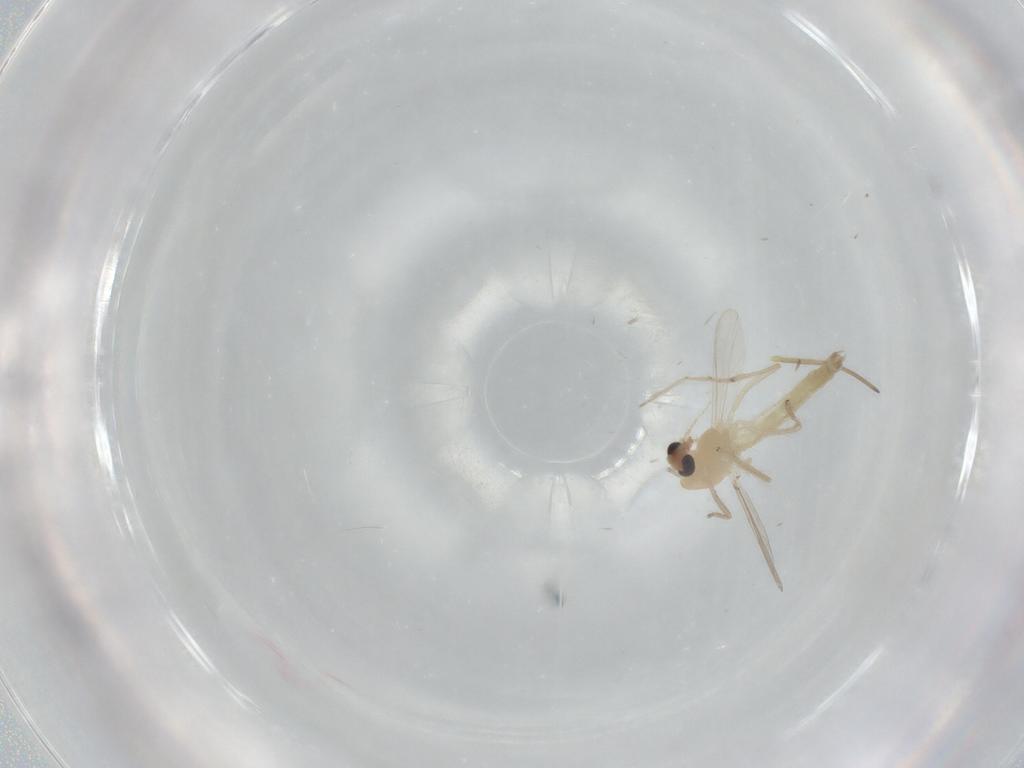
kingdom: Animalia
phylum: Arthropoda
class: Insecta
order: Diptera
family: Chironomidae
